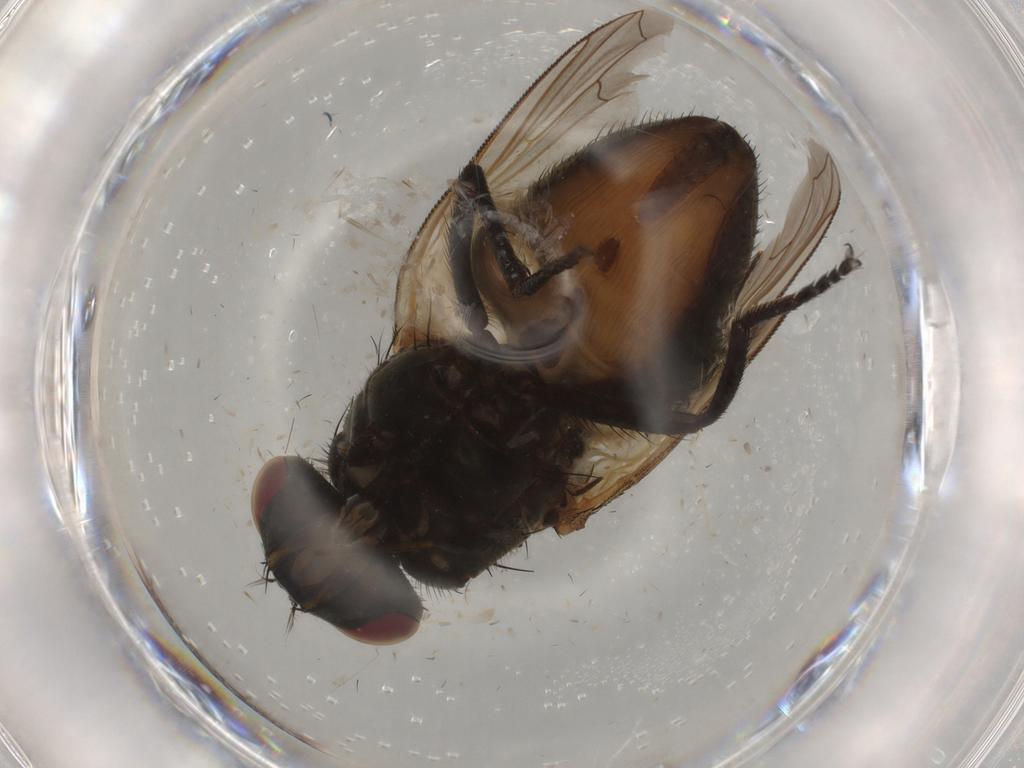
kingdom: Animalia
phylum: Arthropoda
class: Insecta
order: Diptera
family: Muscidae
